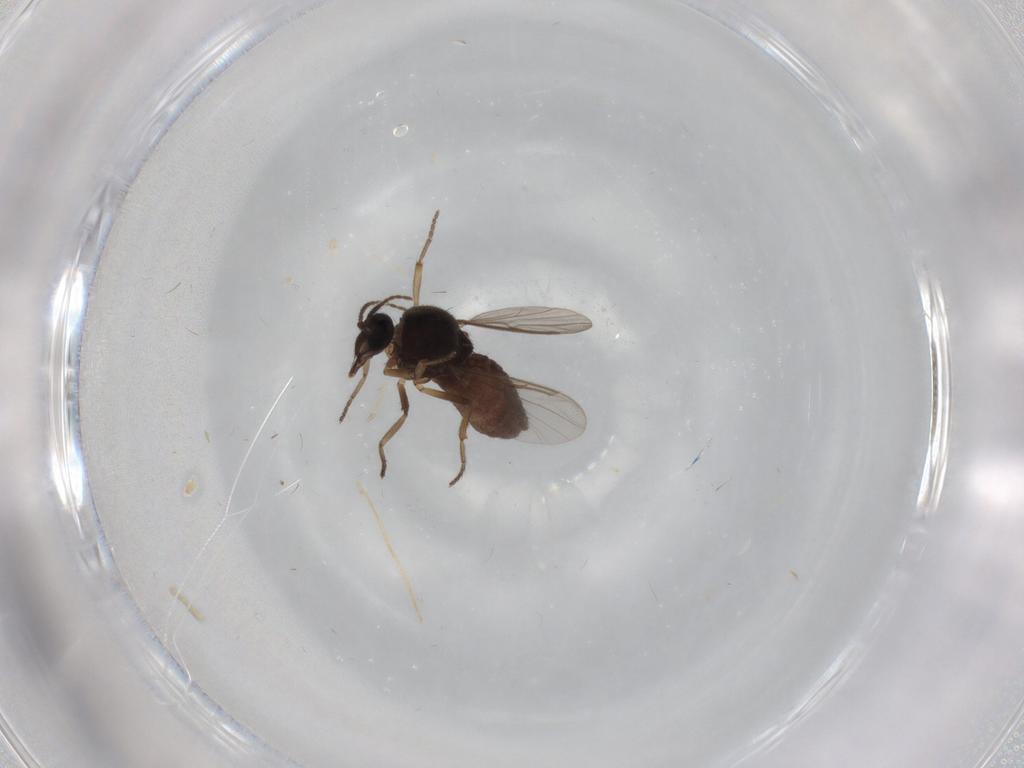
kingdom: Animalia
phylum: Arthropoda
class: Insecta
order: Diptera
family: Ceratopogonidae
